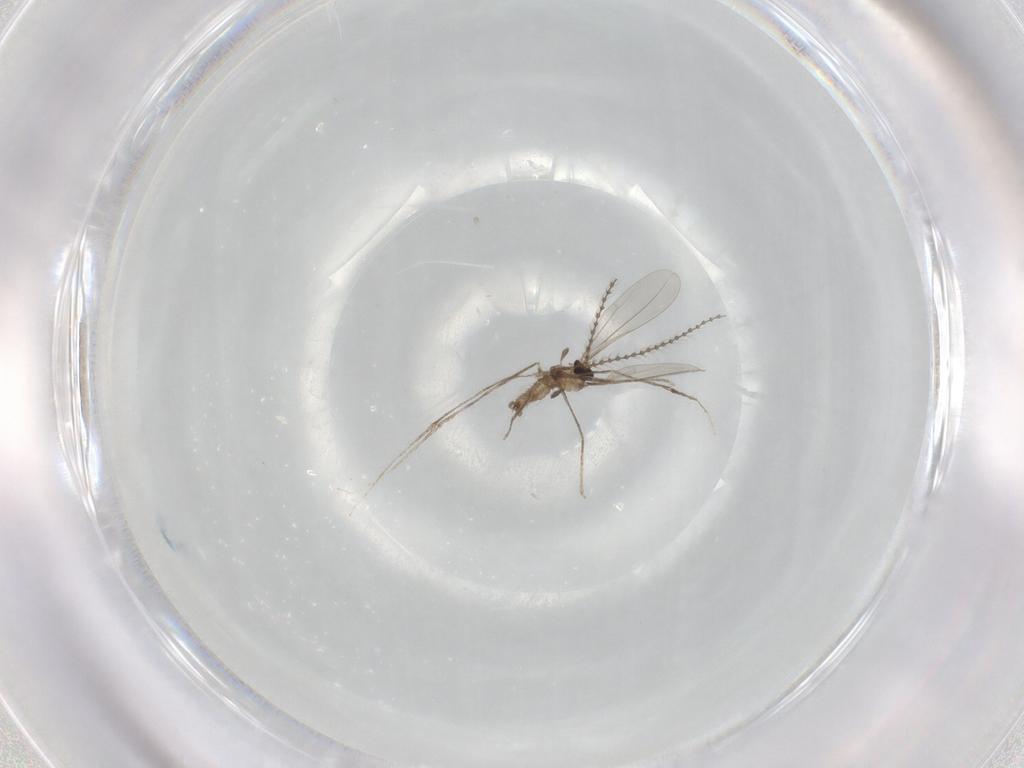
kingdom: Animalia
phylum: Arthropoda
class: Insecta
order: Diptera
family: Cecidomyiidae
